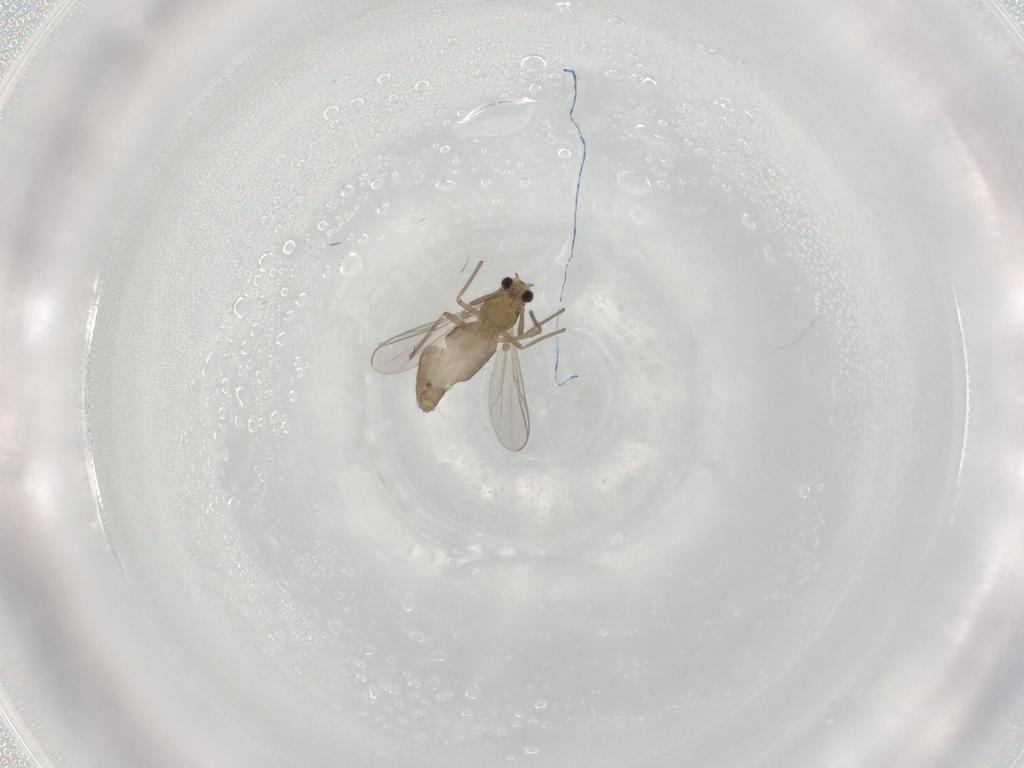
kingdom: Animalia
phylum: Arthropoda
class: Insecta
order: Diptera
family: Chironomidae
